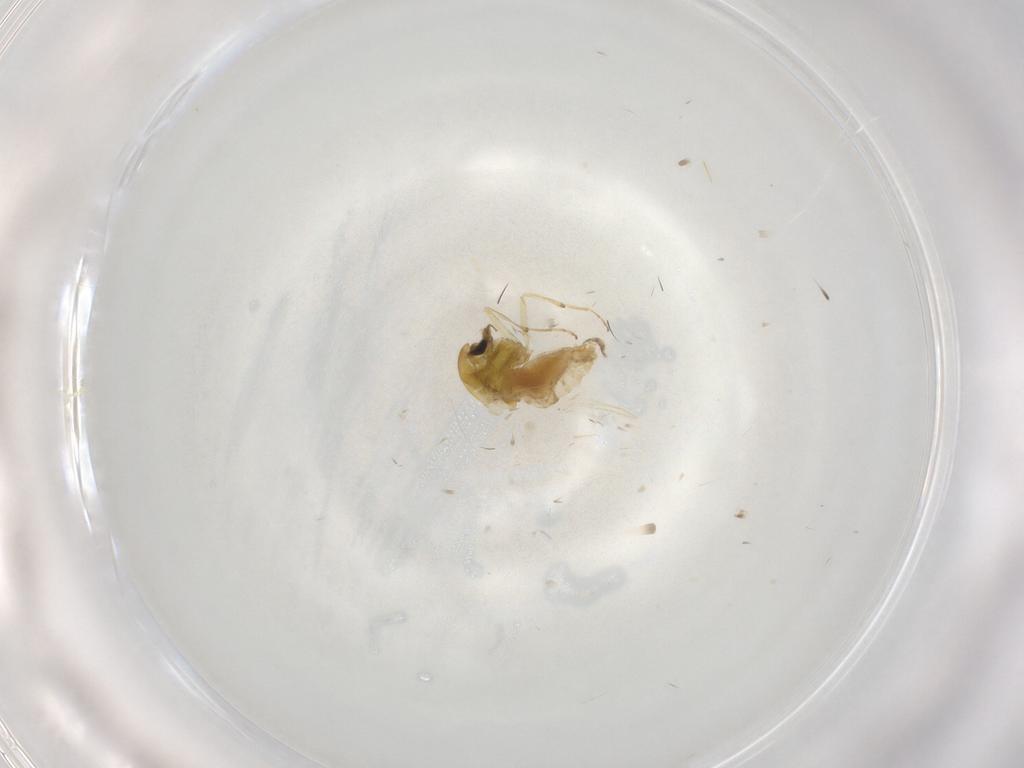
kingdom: Animalia
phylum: Arthropoda
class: Insecta
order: Diptera
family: Chironomidae
